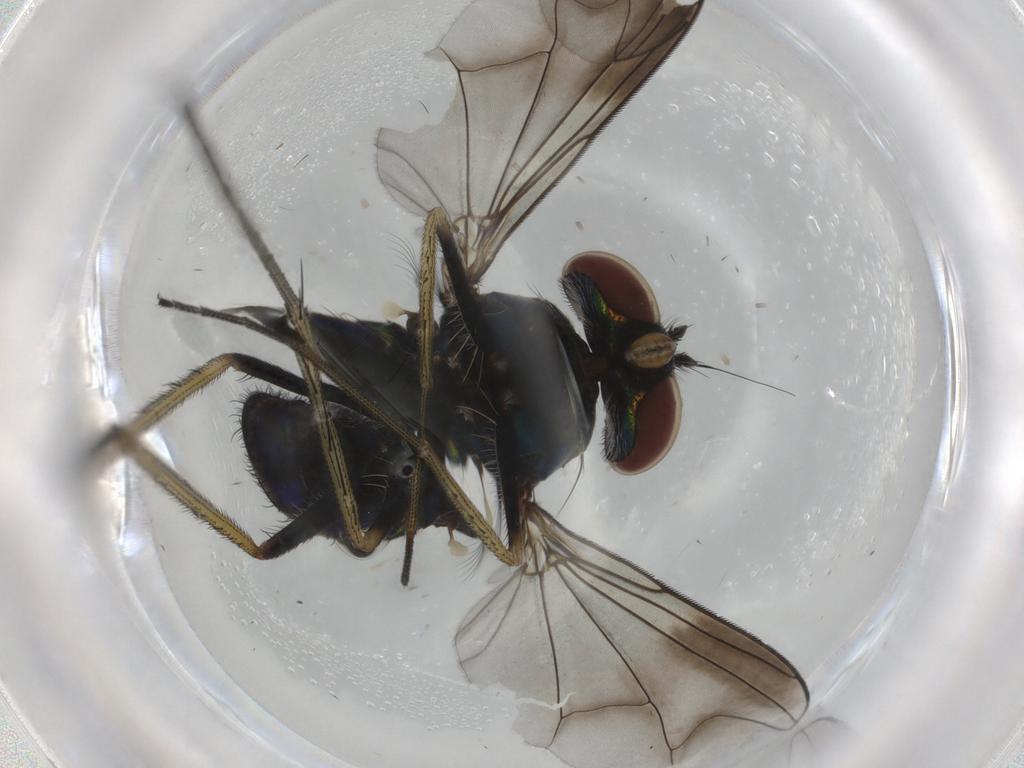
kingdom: Animalia
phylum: Arthropoda
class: Insecta
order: Diptera
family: Dolichopodidae
